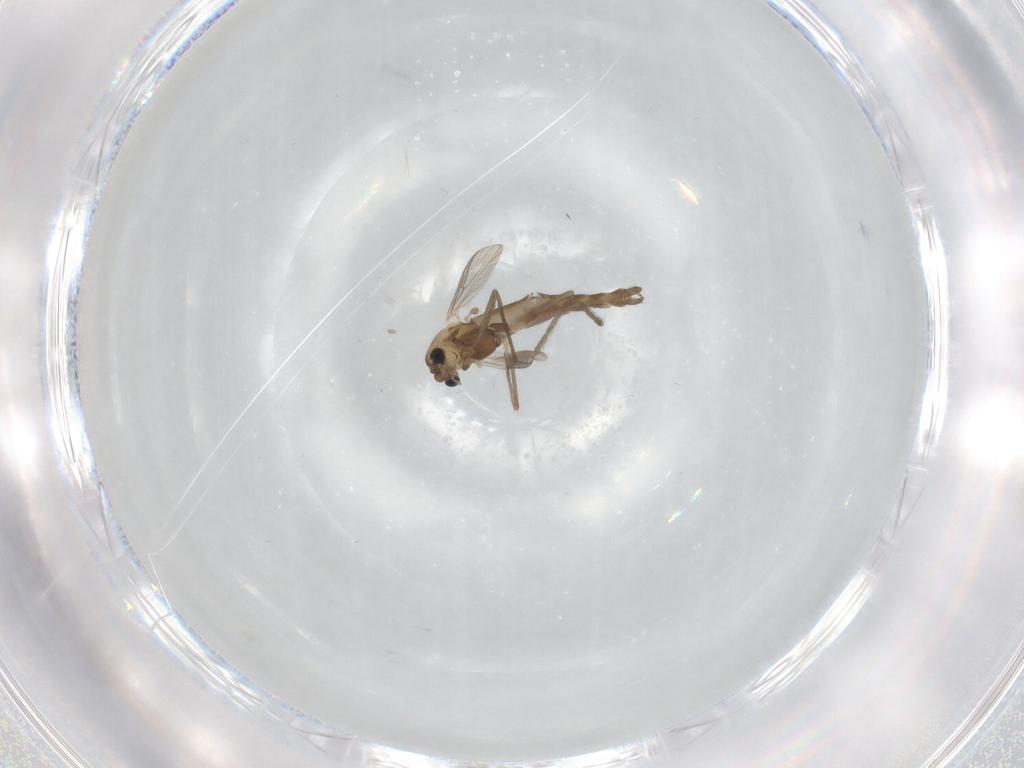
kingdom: Animalia
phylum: Arthropoda
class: Insecta
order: Diptera
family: Chironomidae
